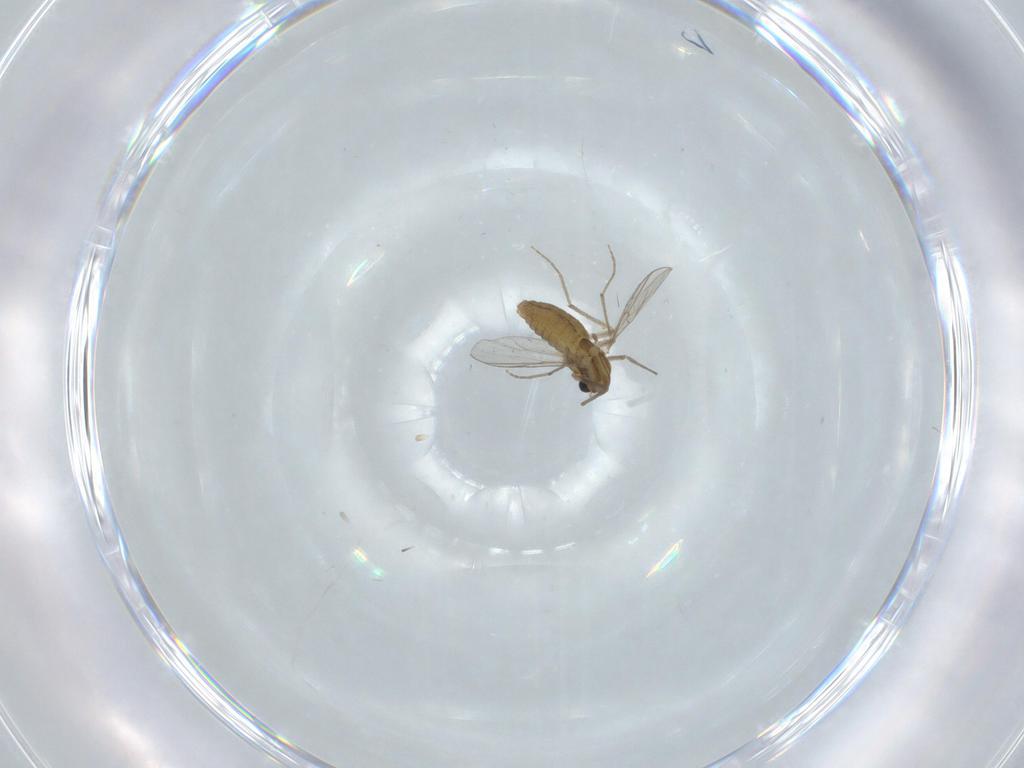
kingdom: Animalia
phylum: Arthropoda
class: Insecta
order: Diptera
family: Chironomidae
